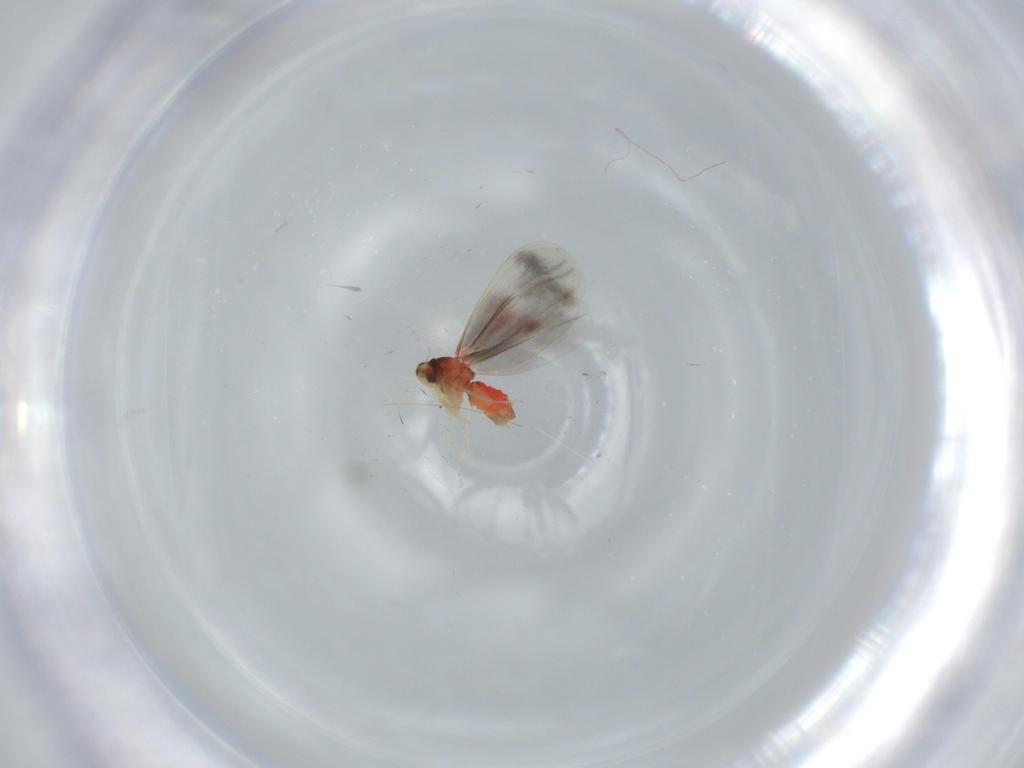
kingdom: Animalia
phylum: Arthropoda
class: Insecta
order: Hemiptera
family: Aleyrodidae
